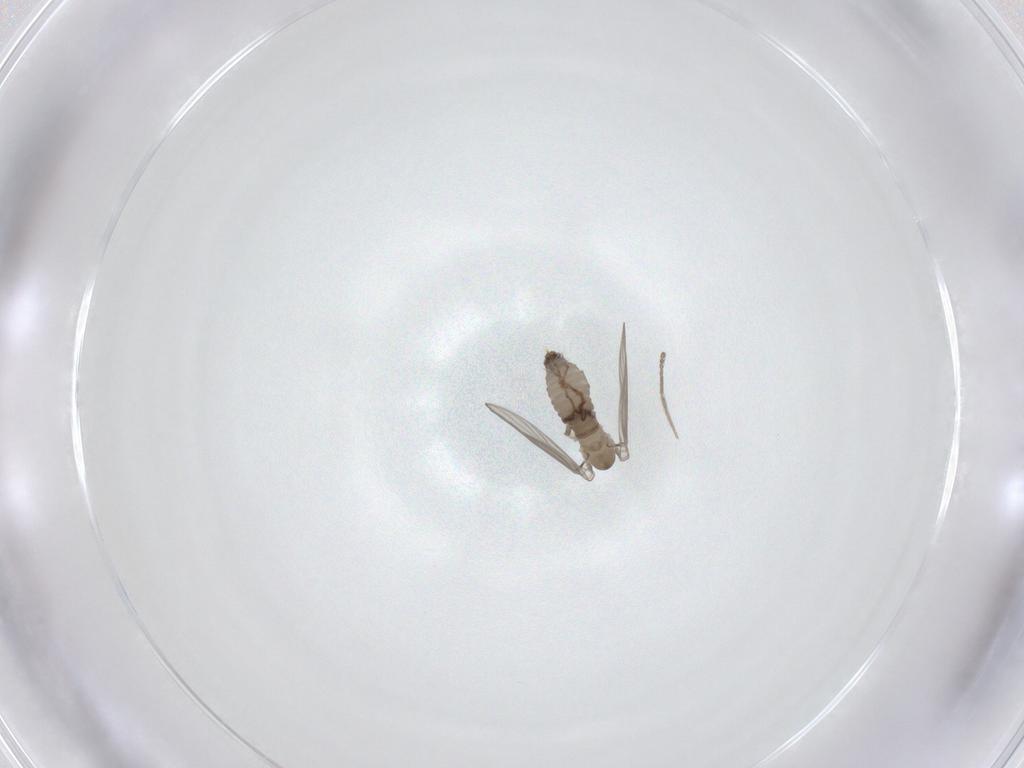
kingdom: Animalia
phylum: Arthropoda
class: Insecta
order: Diptera
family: Psychodidae
